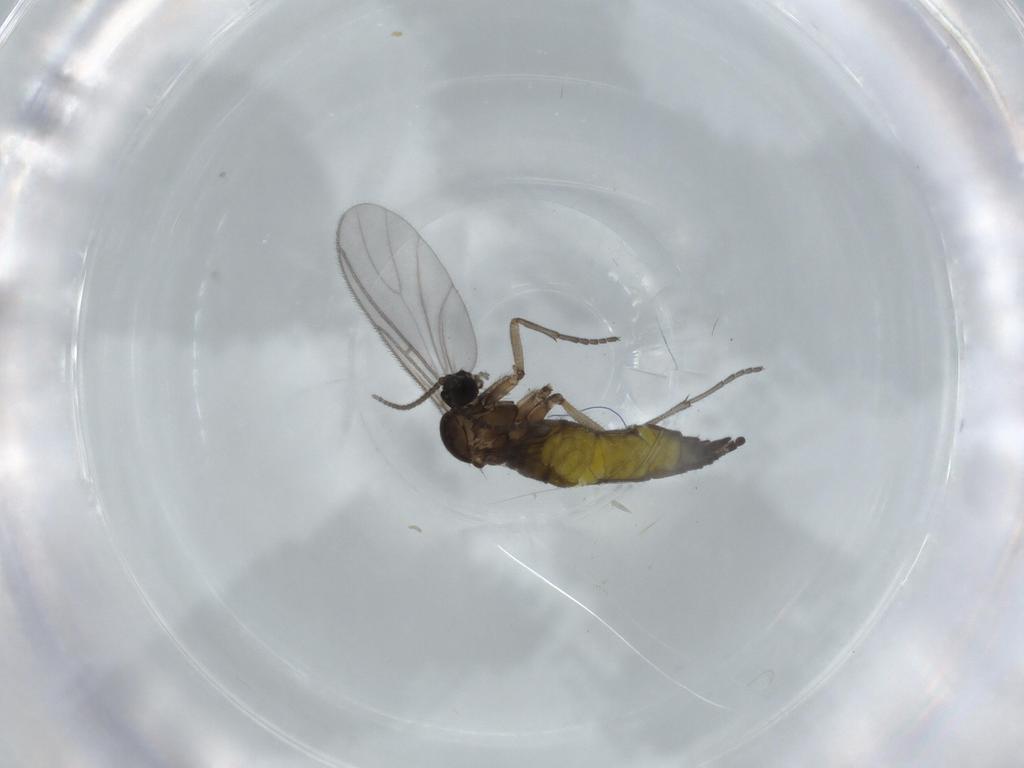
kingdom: Animalia
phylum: Arthropoda
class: Insecta
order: Diptera
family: Sciaridae
